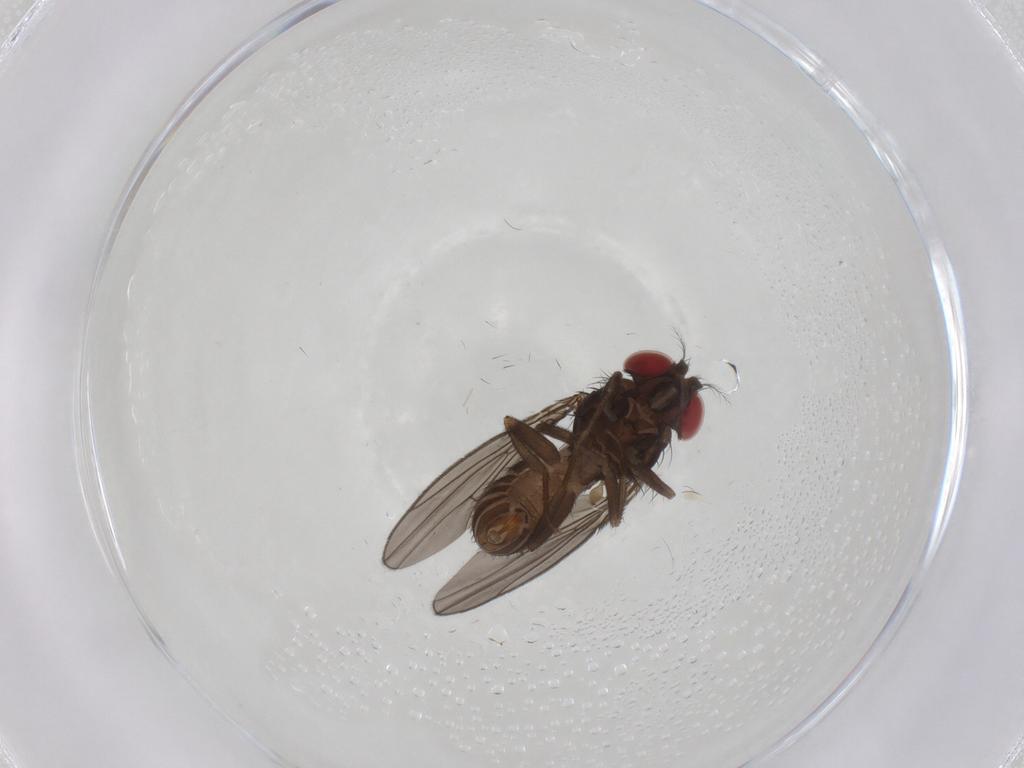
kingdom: Animalia
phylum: Arthropoda
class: Insecta
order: Diptera
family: Drosophilidae
